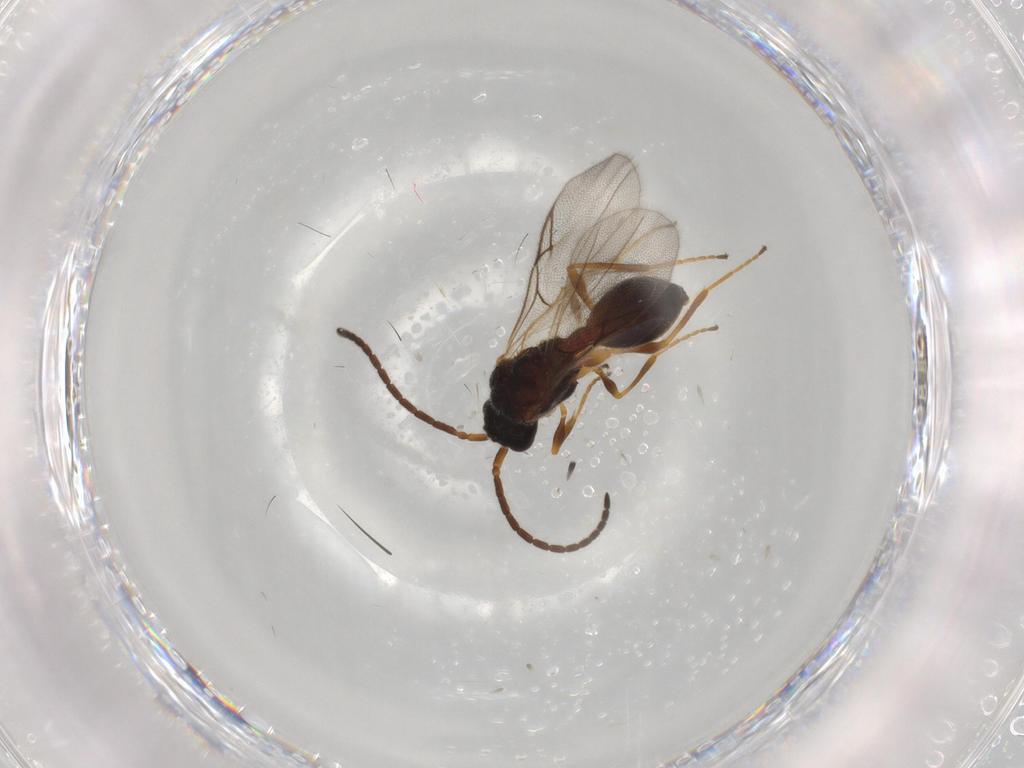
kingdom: Animalia
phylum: Arthropoda
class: Insecta
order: Hymenoptera
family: Diapriidae
